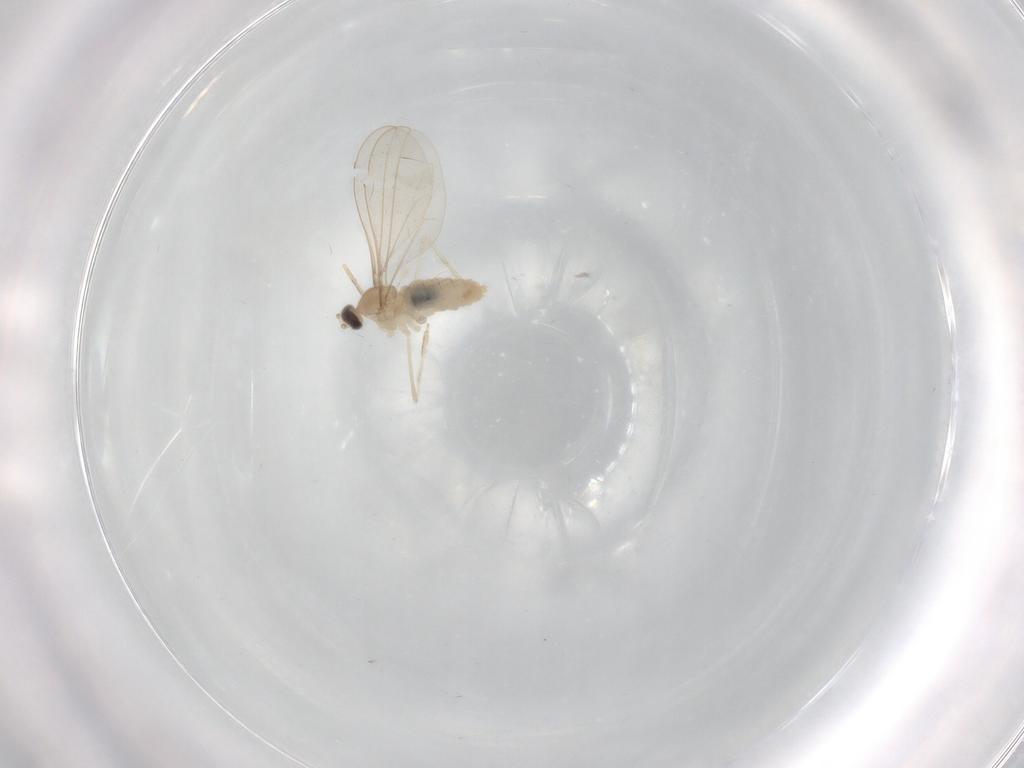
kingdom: Animalia
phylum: Arthropoda
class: Insecta
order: Diptera
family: Cecidomyiidae
